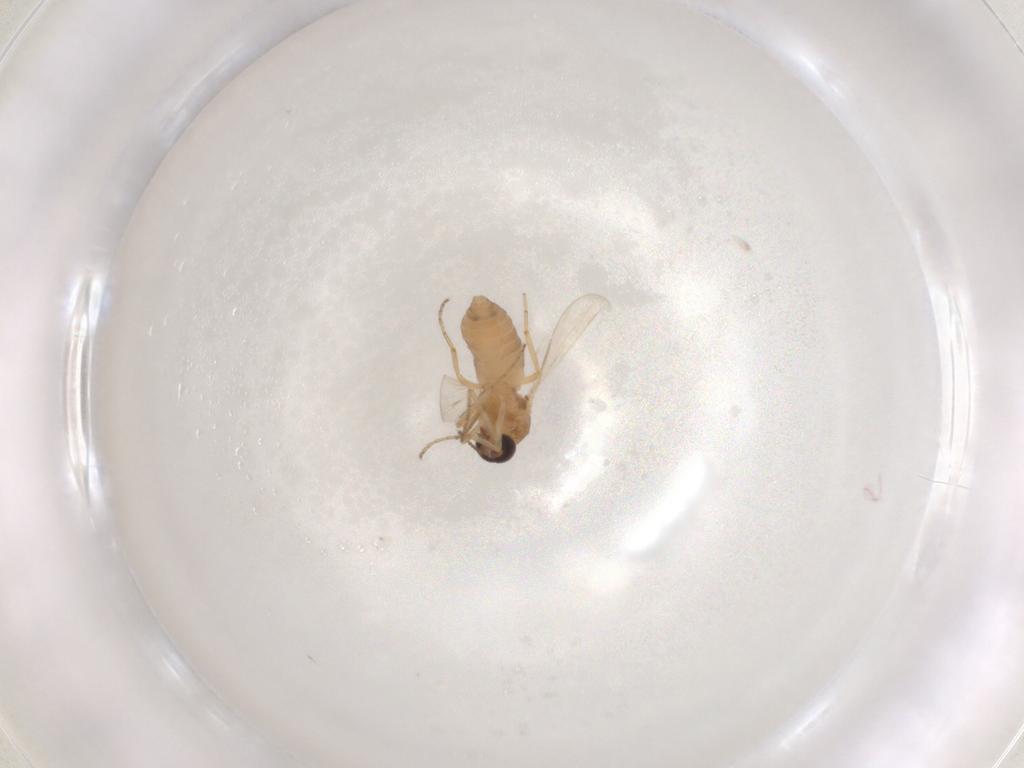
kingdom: Animalia
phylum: Arthropoda
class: Insecta
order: Diptera
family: Ceratopogonidae
